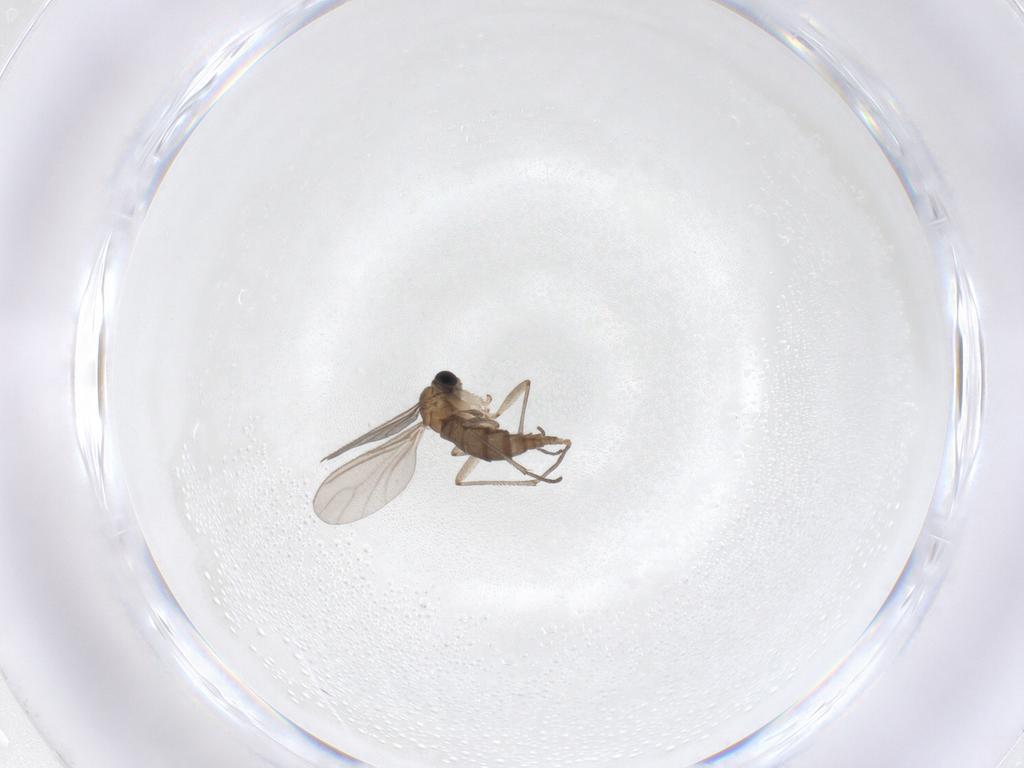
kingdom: Animalia
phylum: Arthropoda
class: Insecta
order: Diptera
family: Sciaridae
